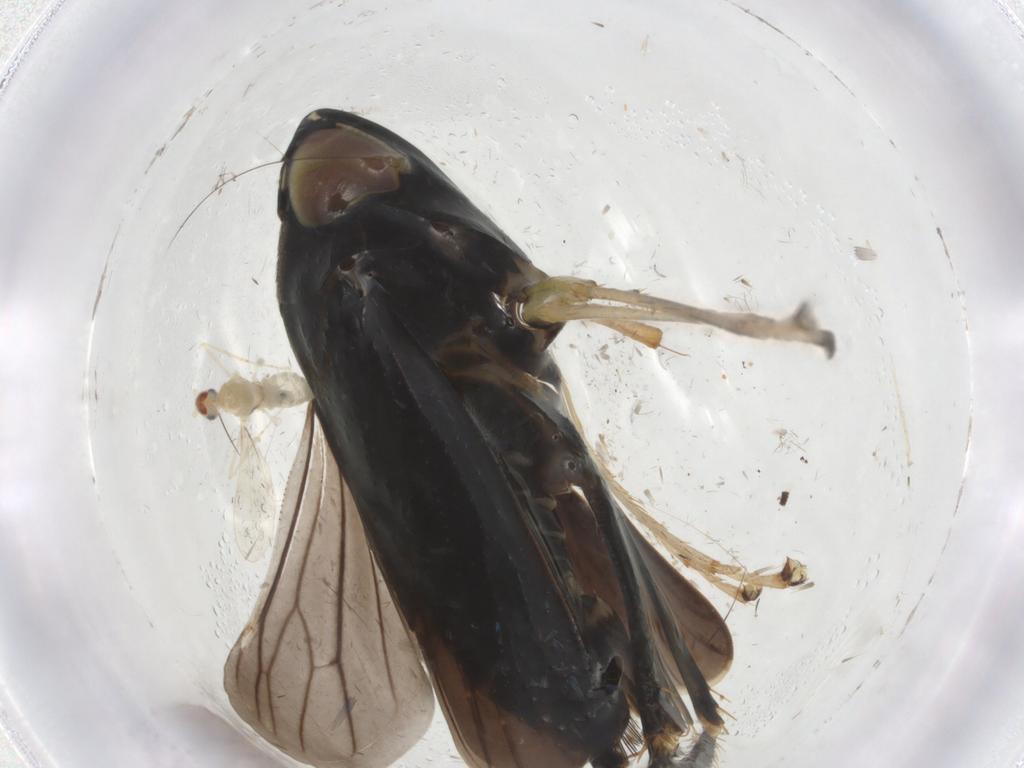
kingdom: Animalia
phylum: Arthropoda
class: Insecta
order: Hemiptera
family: Cicadellidae
